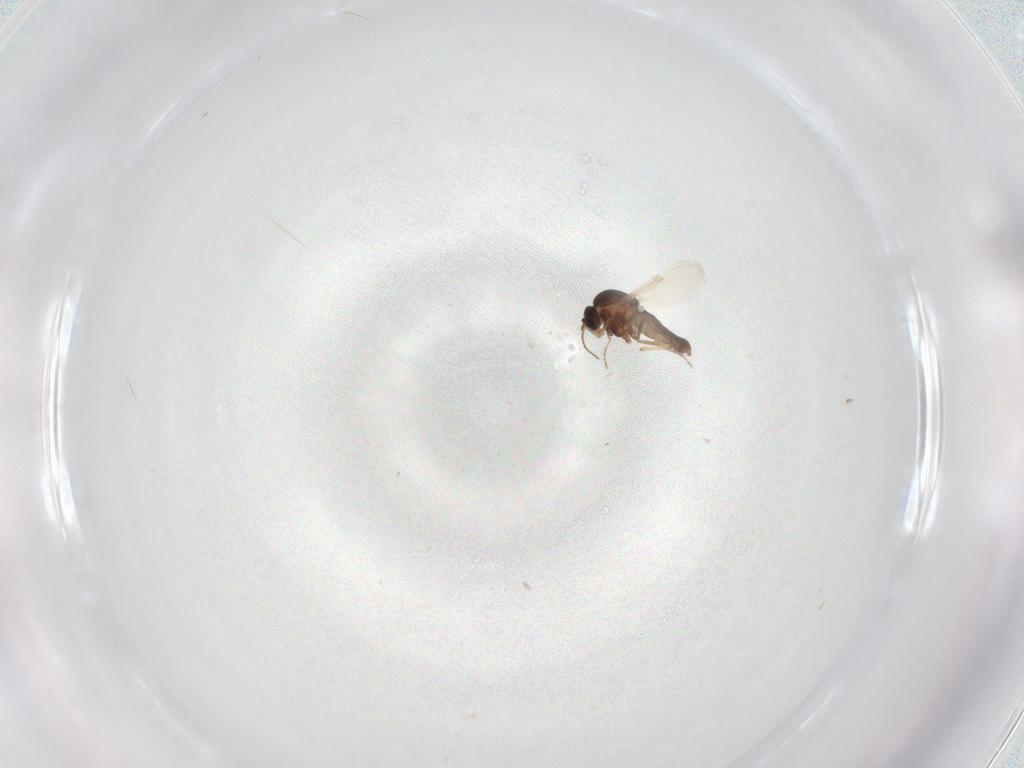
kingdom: Animalia
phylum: Arthropoda
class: Insecta
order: Diptera
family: Ceratopogonidae
